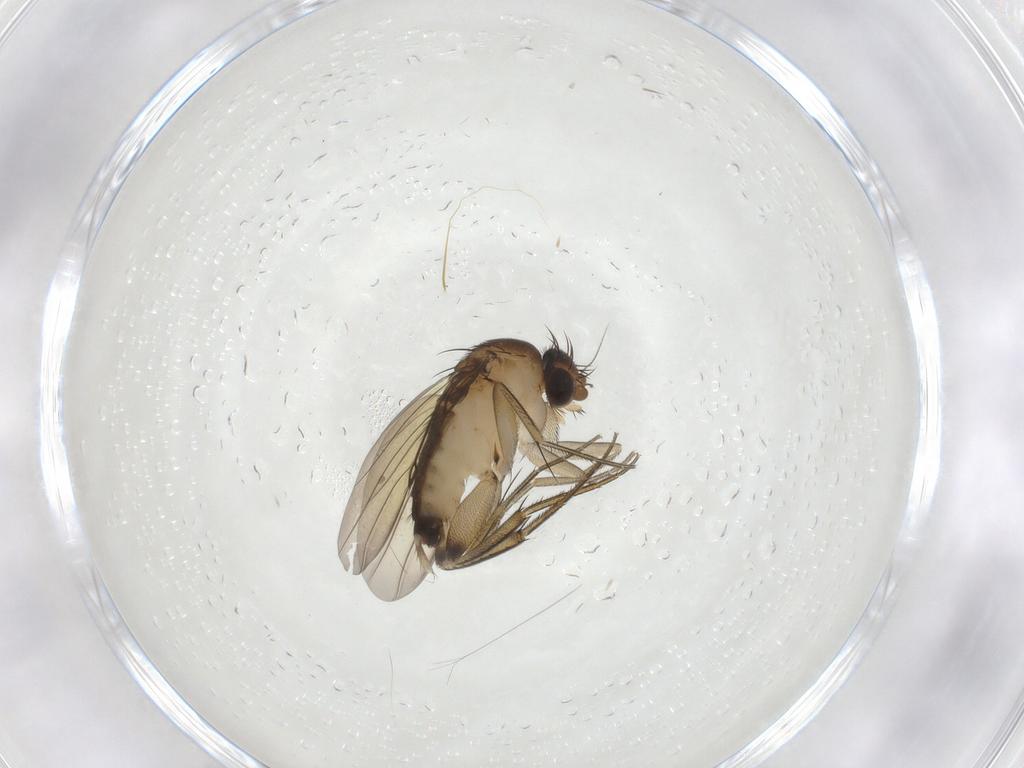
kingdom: Animalia
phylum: Arthropoda
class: Insecta
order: Diptera
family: Phoridae
